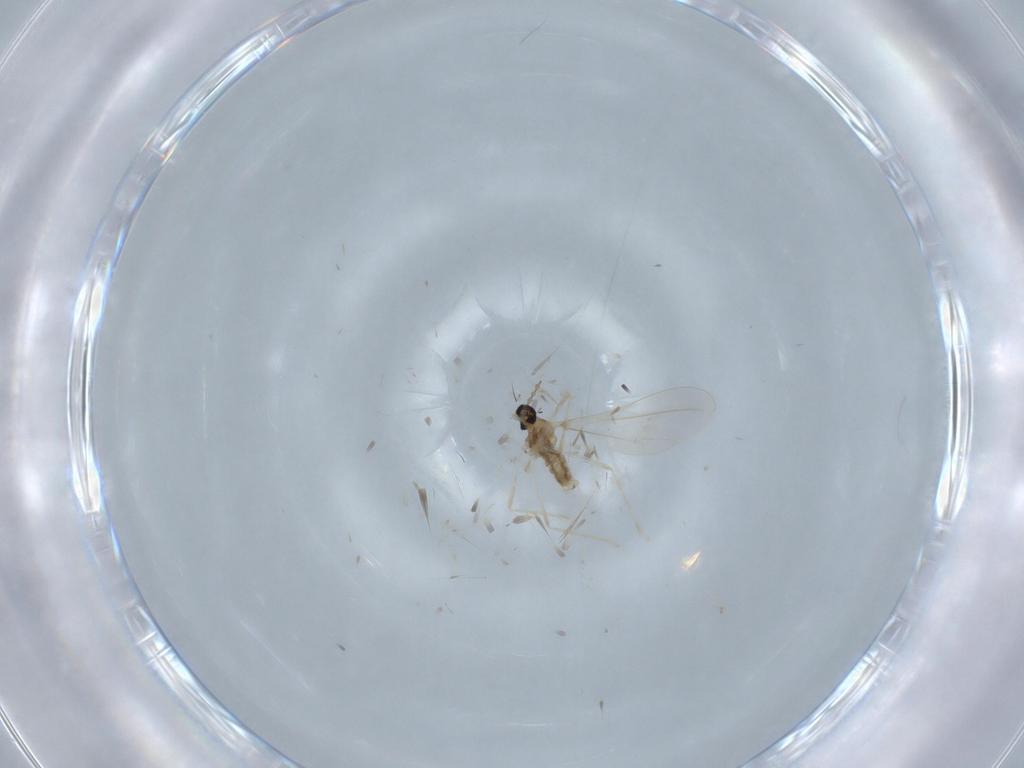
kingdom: Animalia
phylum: Arthropoda
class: Insecta
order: Diptera
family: Cecidomyiidae
